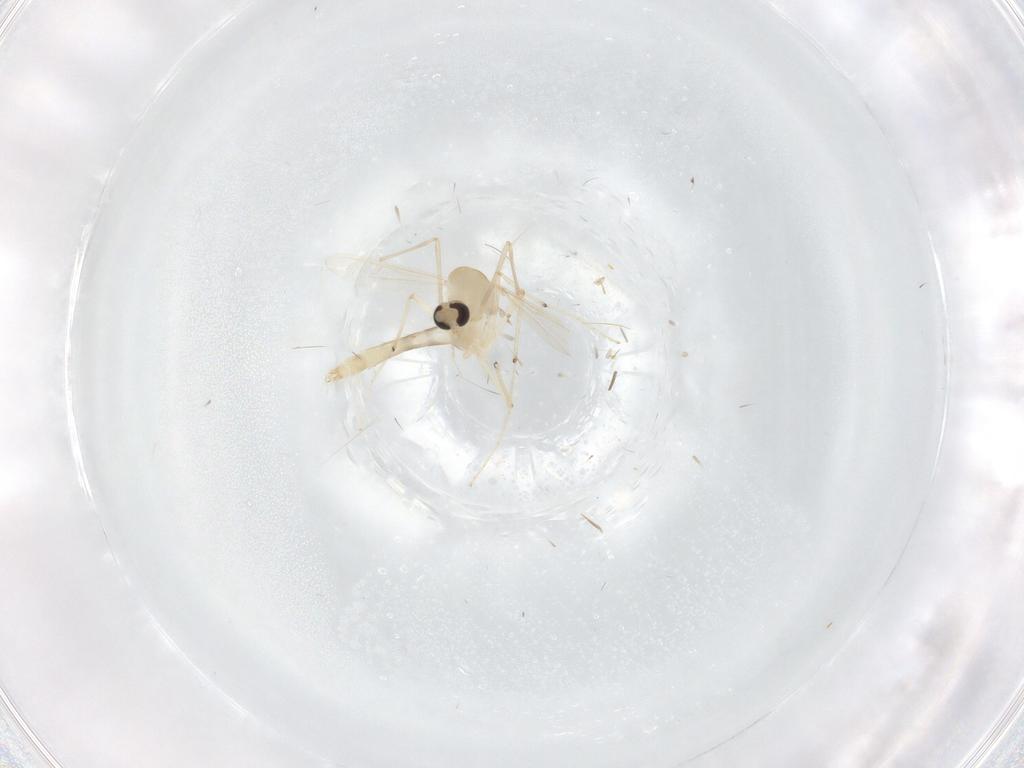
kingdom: Animalia
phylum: Arthropoda
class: Insecta
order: Diptera
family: Chironomidae
